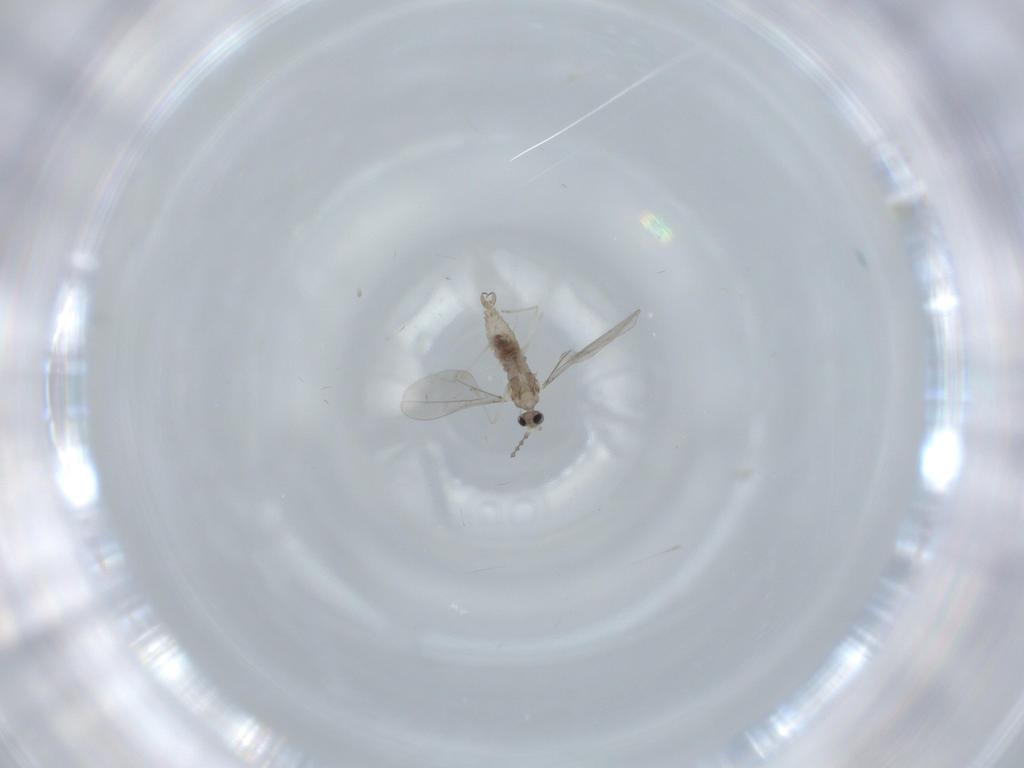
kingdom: Animalia
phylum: Arthropoda
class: Insecta
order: Diptera
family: Cecidomyiidae
